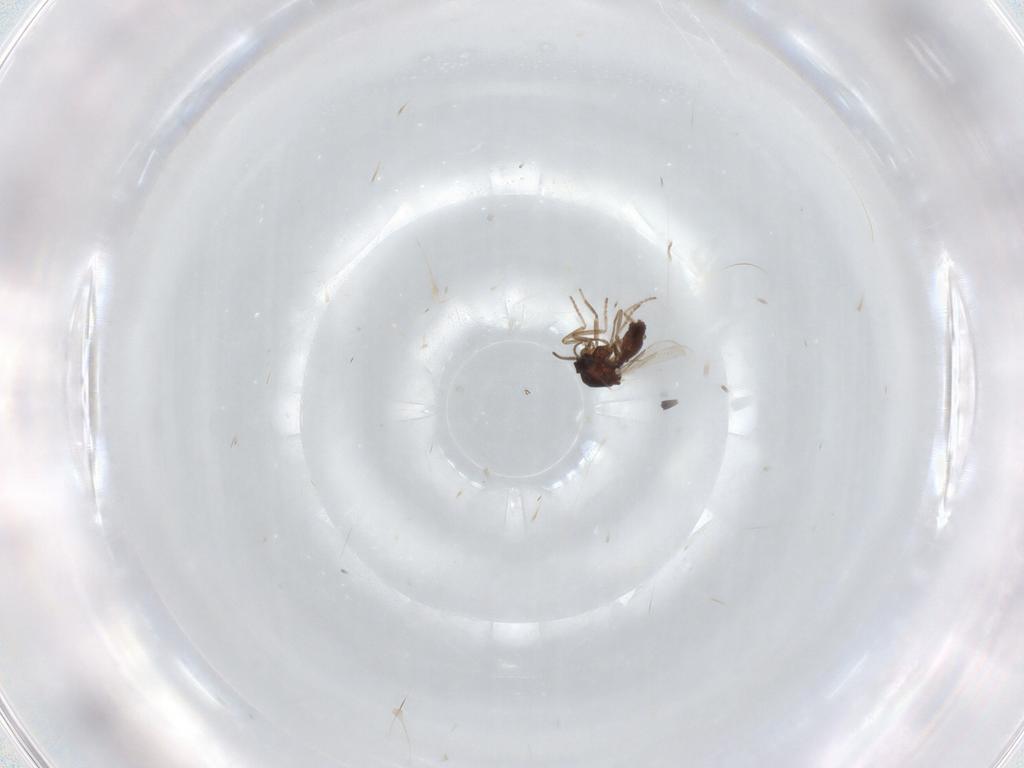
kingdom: Animalia
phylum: Arthropoda
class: Insecta
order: Diptera
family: Ceratopogonidae
